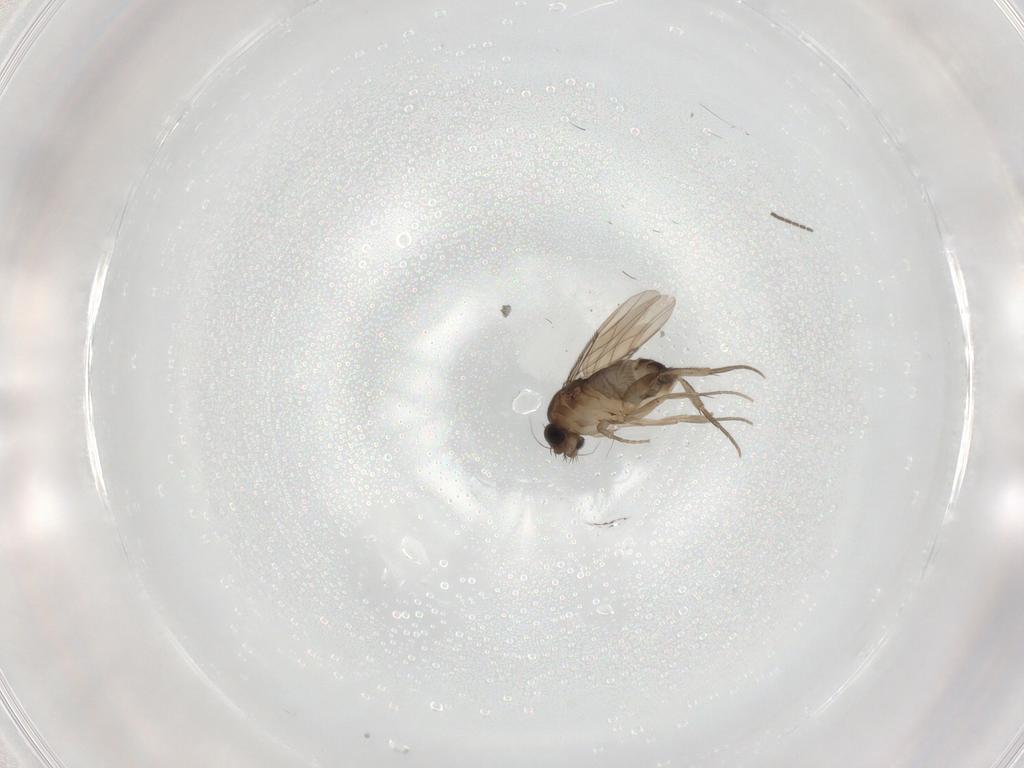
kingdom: Animalia
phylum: Arthropoda
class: Insecta
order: Diptera
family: Phoridae
